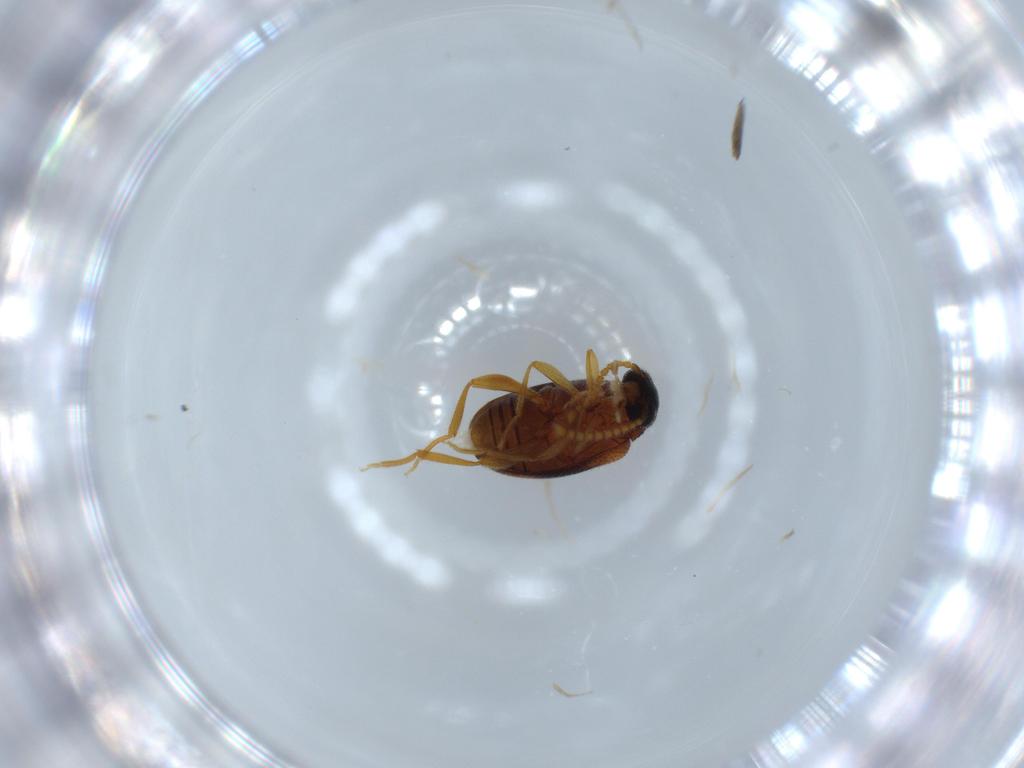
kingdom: Animalia
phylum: Arthropoda
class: Insecta
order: Coleoptera
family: Aderidae
